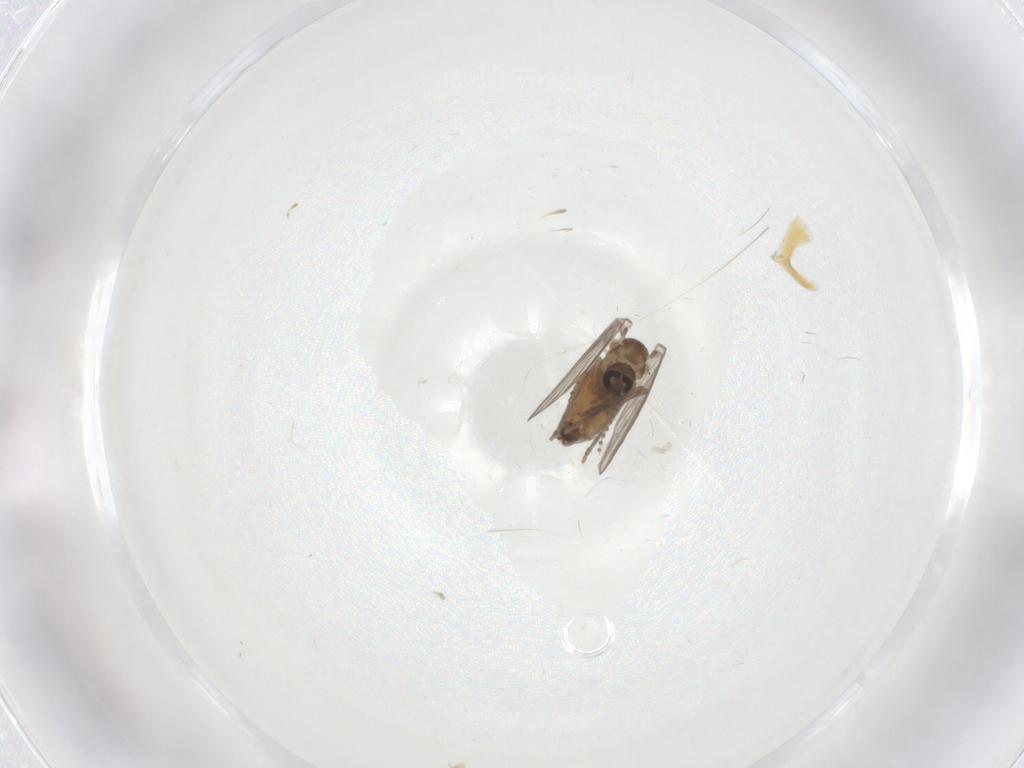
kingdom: Animalia
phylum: Arthropoda
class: Insecta
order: Diptera
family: Psychodidae
